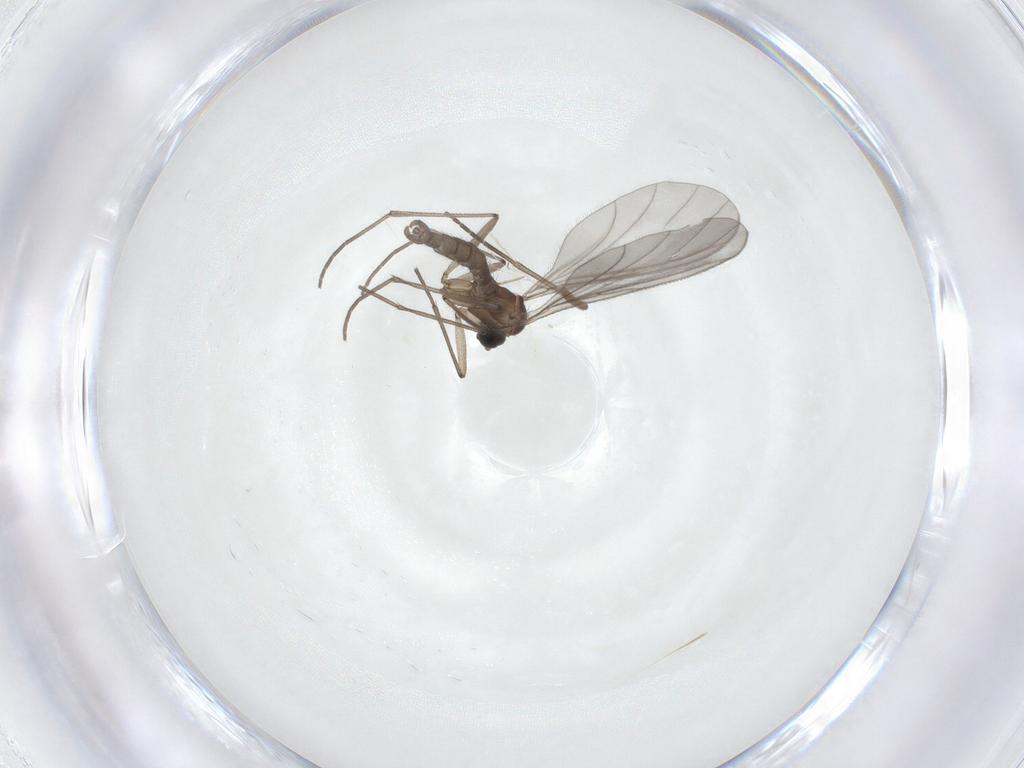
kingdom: Animalia
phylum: Arthropoda
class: Insecta
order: Diptera
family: Sciaridae
